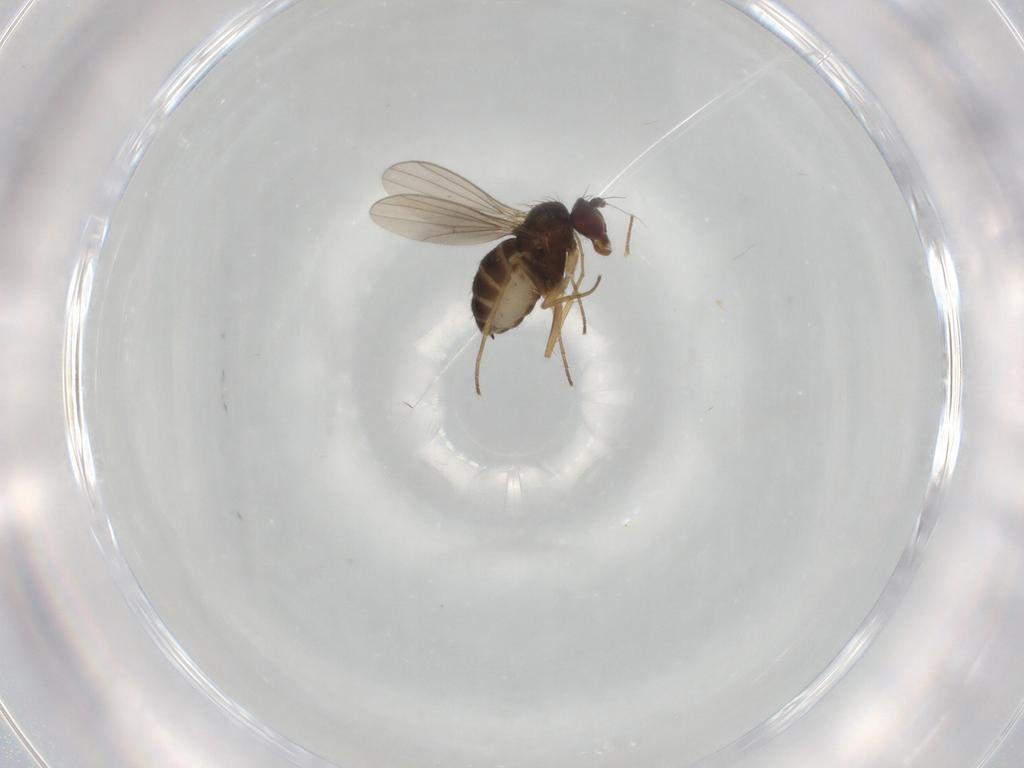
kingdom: Animalia
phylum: Arthropoda
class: Insecta
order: Diptera
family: Dolichopodidae
